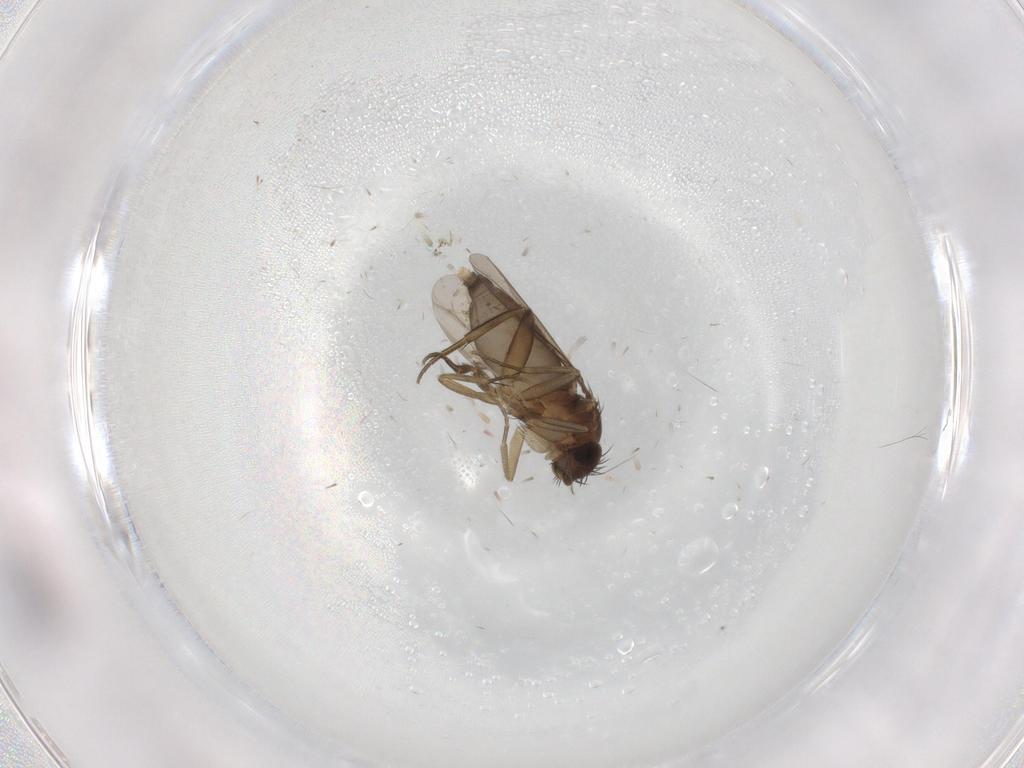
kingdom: Animalia
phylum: Arthropoda
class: Insecta
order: Diptera
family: Phoridae
